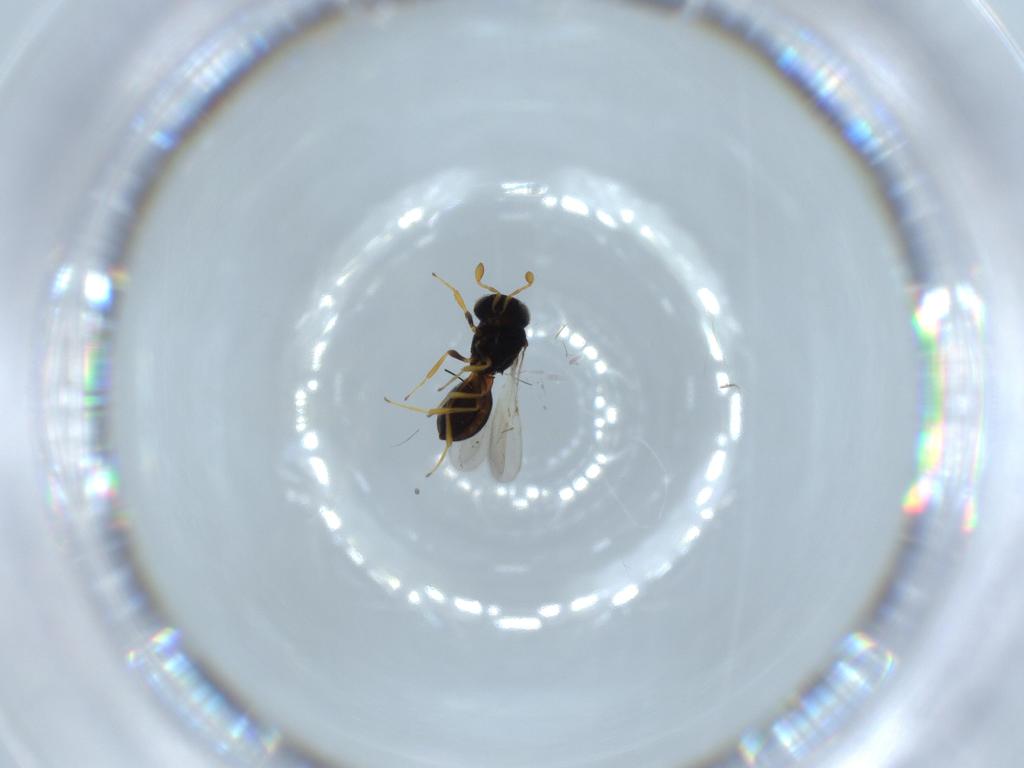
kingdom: Animalia
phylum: Arthropoda
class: Insecta
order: Hymenoptera
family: Scelionidae
